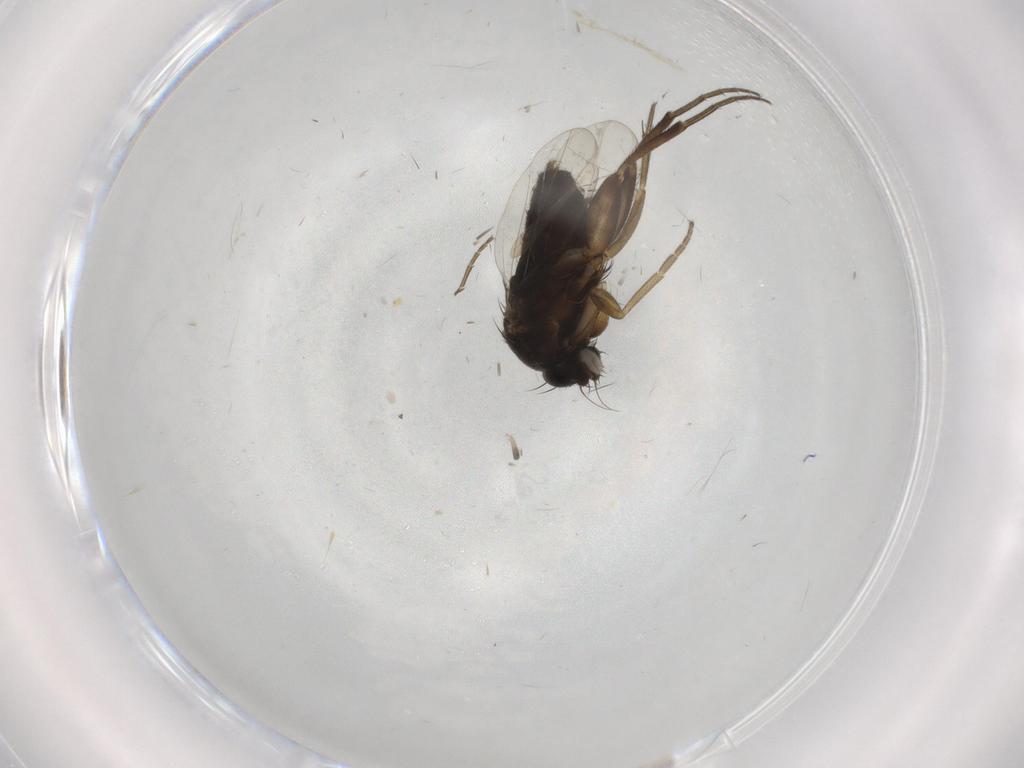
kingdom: Animalia
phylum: Arthropoda
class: Insecta
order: Diptera
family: Phoridae
